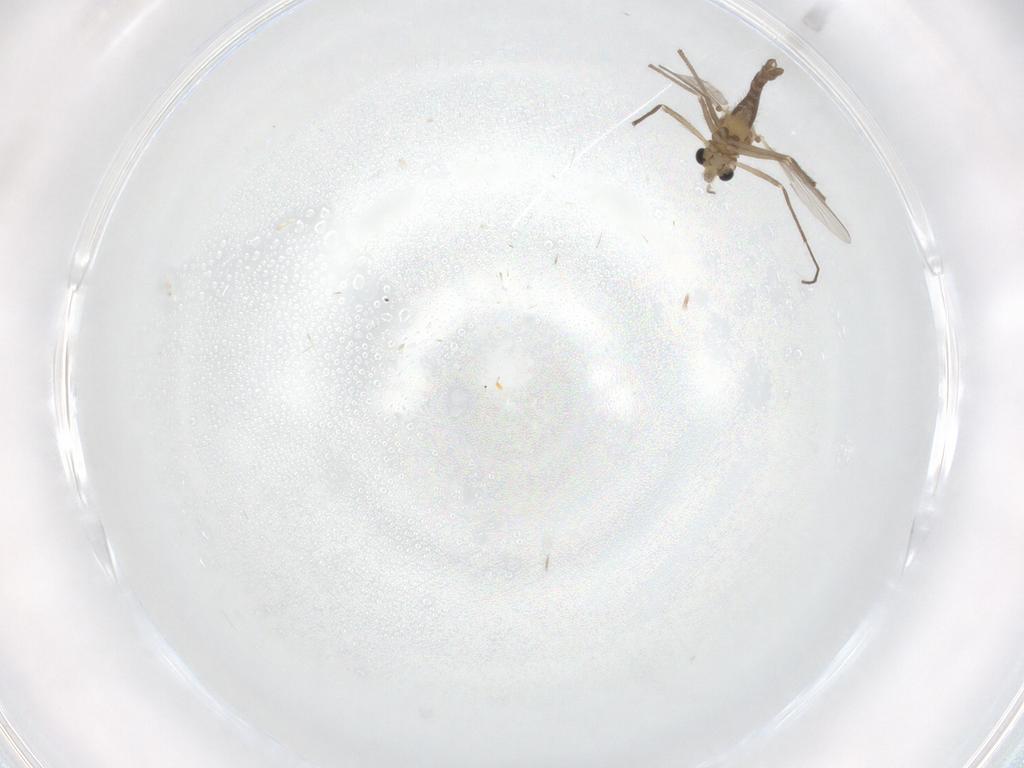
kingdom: Animalia
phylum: Arthropoda
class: Insecta
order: Diptera
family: Chironomidae
